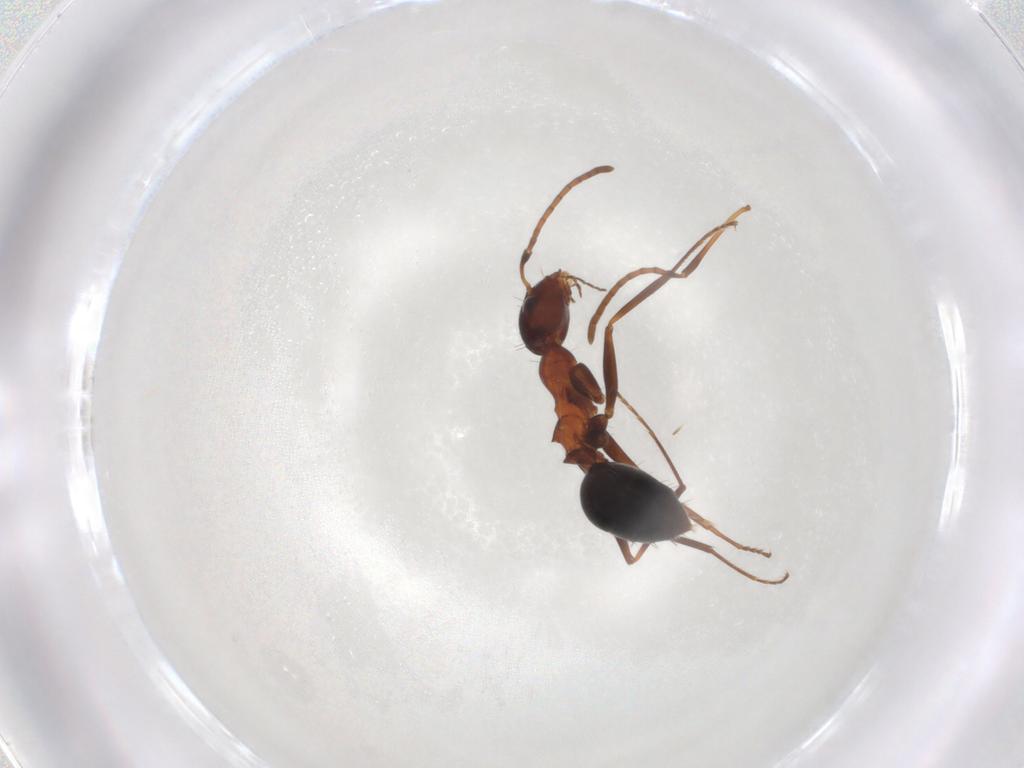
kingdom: Animalia
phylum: Arthropoda
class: Insecta
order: Hymenoptera
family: Formicidae
